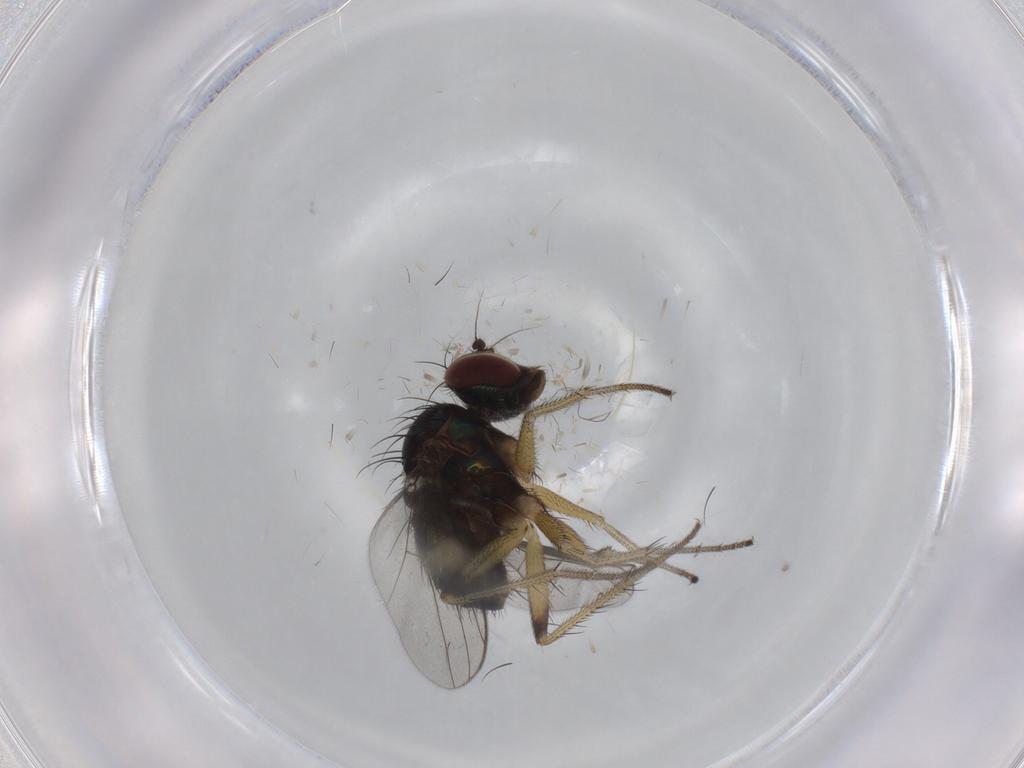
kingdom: Animalia
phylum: Arthropoda
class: Insecta
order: Diptera
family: Dolichopodidae
